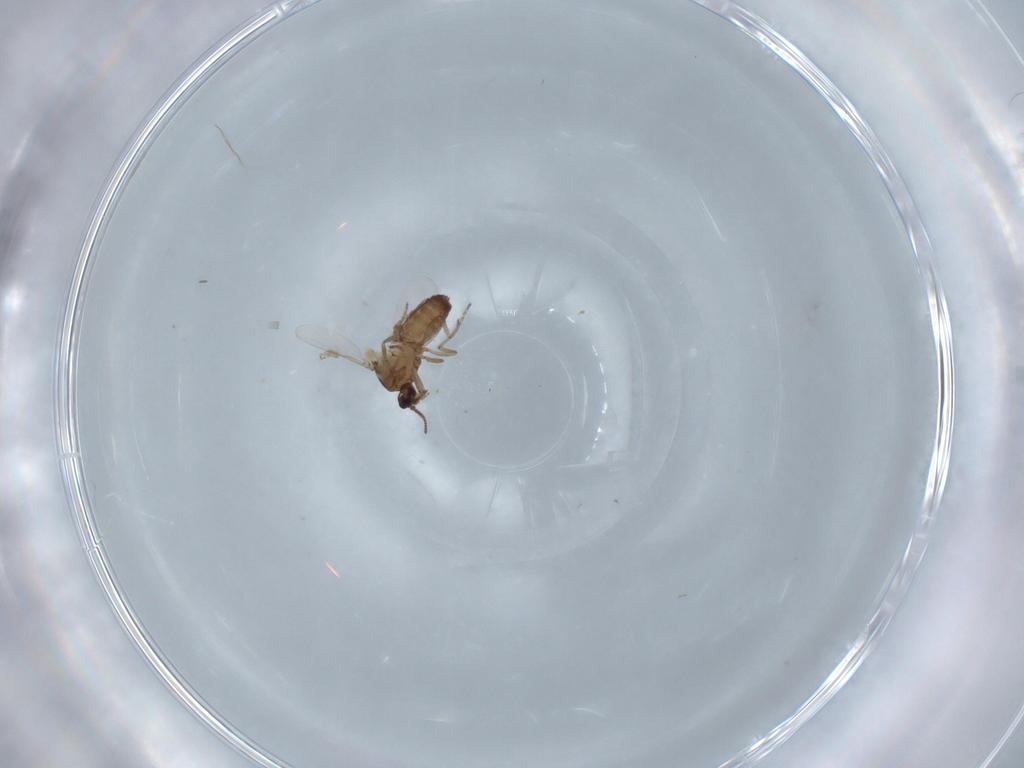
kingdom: Animalia
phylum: Arthropoda
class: Insecta
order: Diptera
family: Ceratopogonidae
